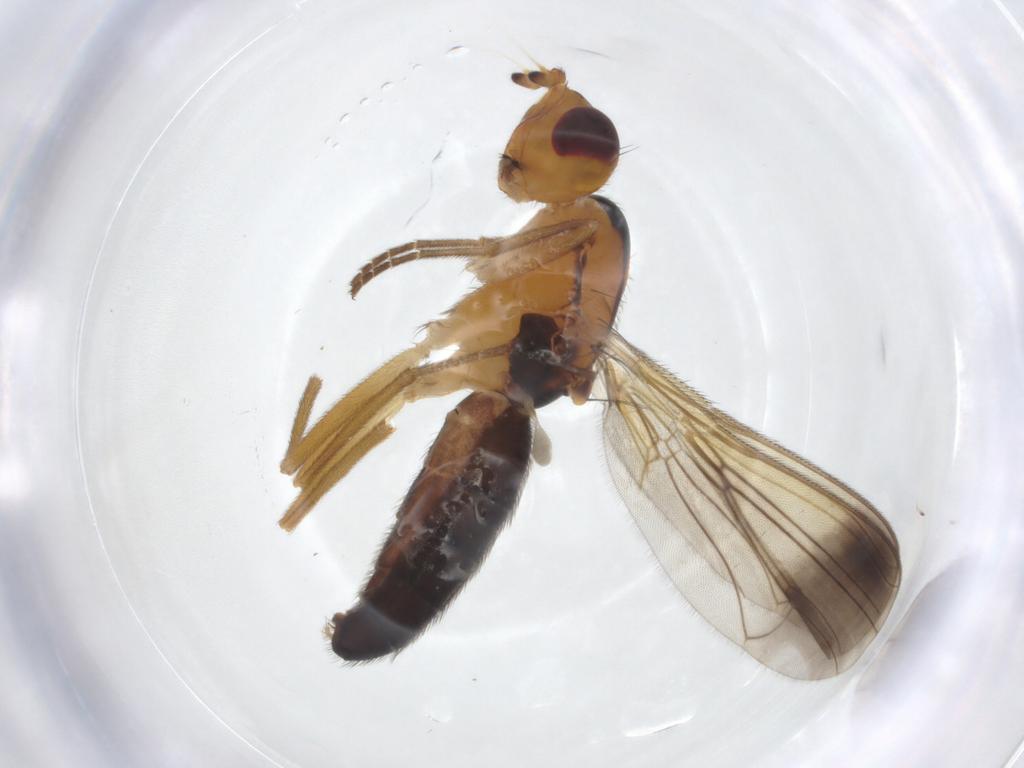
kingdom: Animalia
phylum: Arthropoda
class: Insecta
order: Diptera
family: Sciaridae
